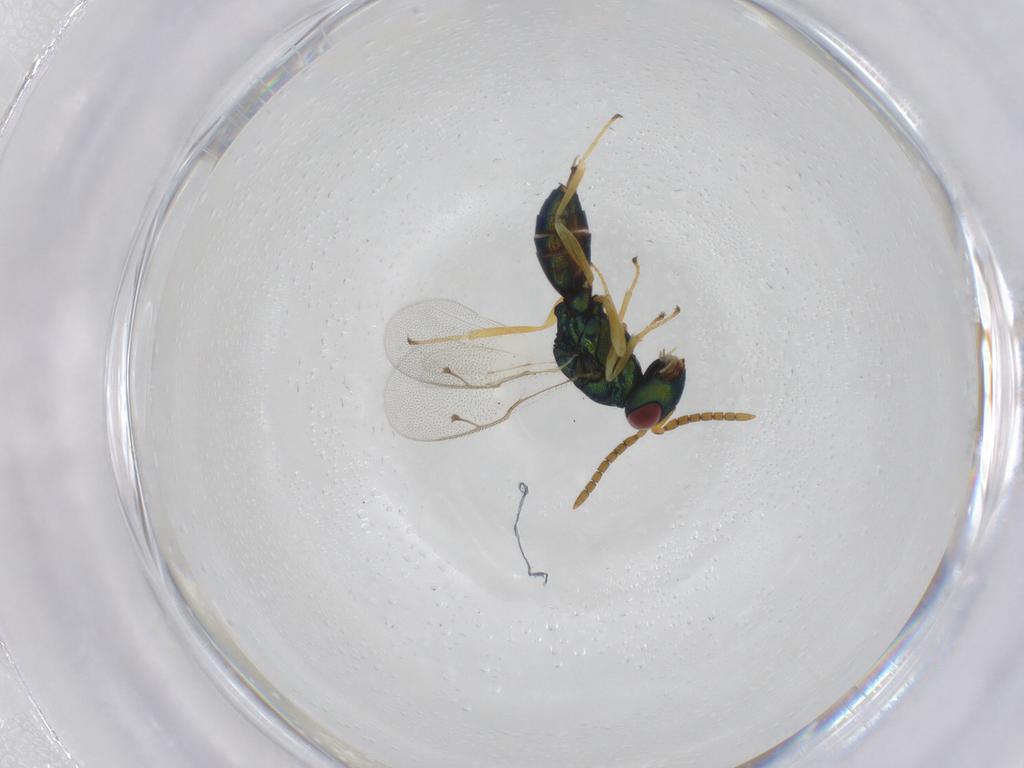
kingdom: Animalia
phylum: Arthropoda
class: Insecta
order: Hymenoptera
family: Pteromalidae
